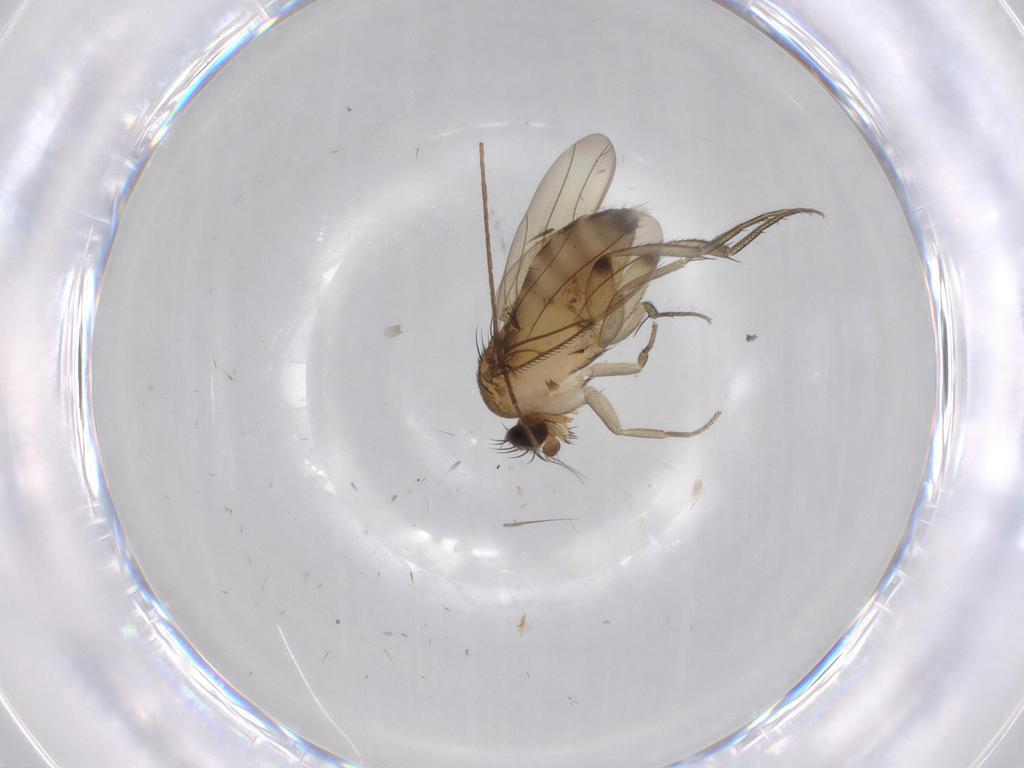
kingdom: Animalia
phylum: Arthropoda
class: Insecta
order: Diptera
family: Phoridae
